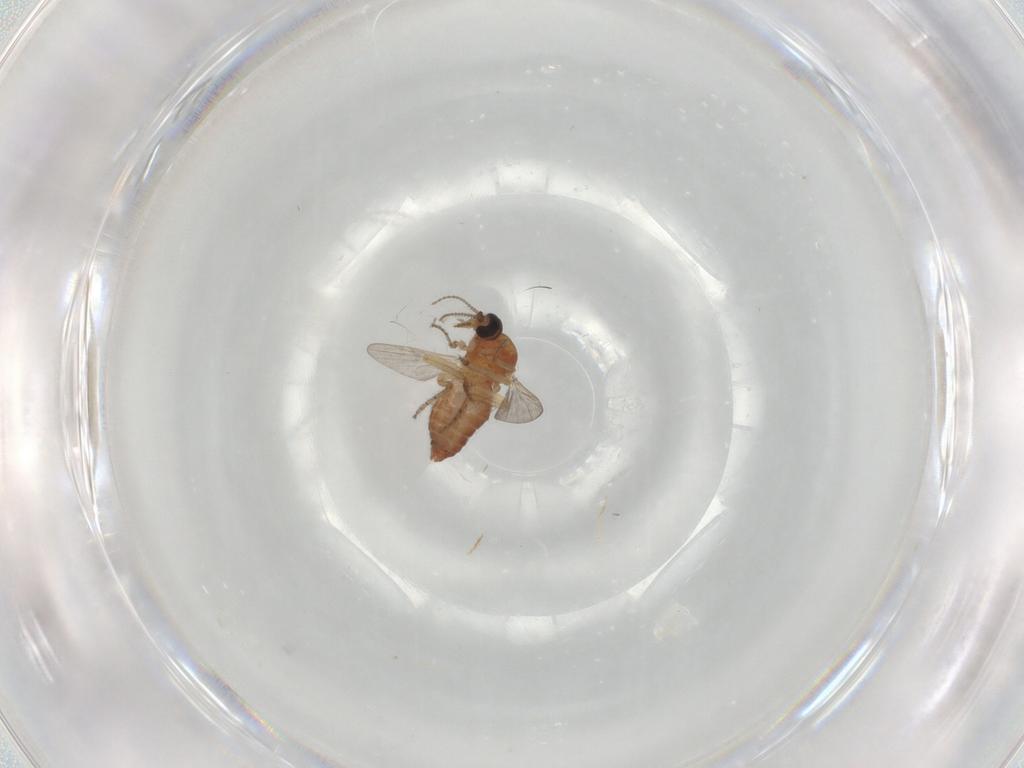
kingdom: Animalia
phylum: Arthropoda
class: Insecta
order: Diptera
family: Ceratopogonidae
